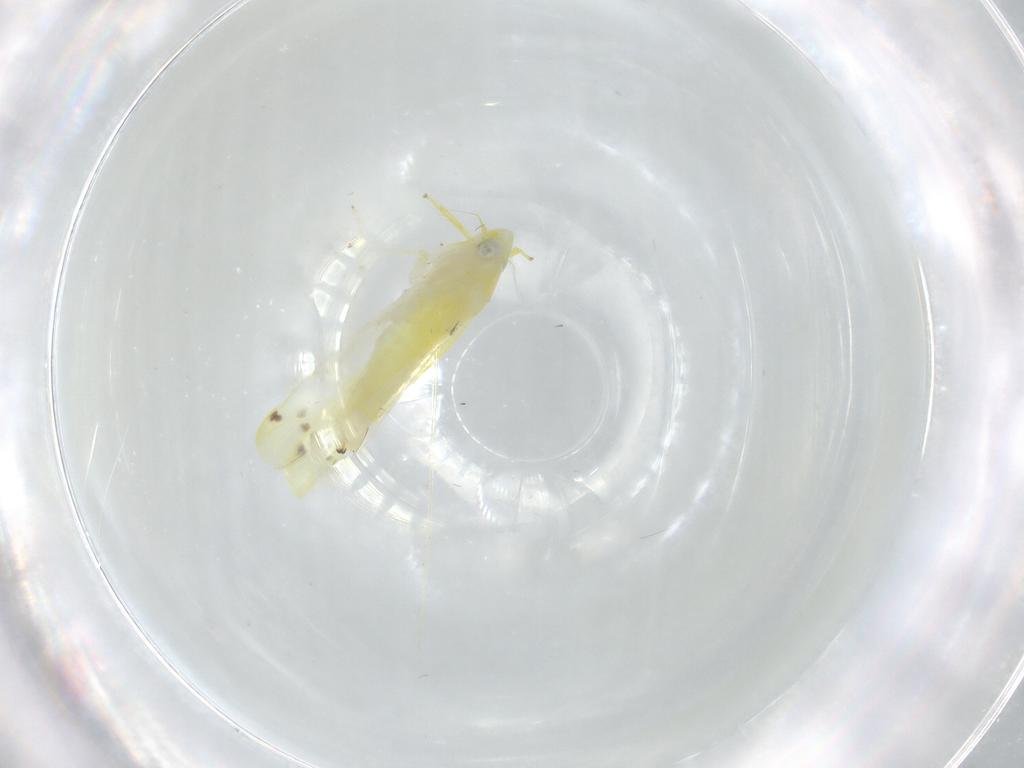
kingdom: Animalia
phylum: Arthropoda
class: Insecta
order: Hemiptera
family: Cicadellidae
